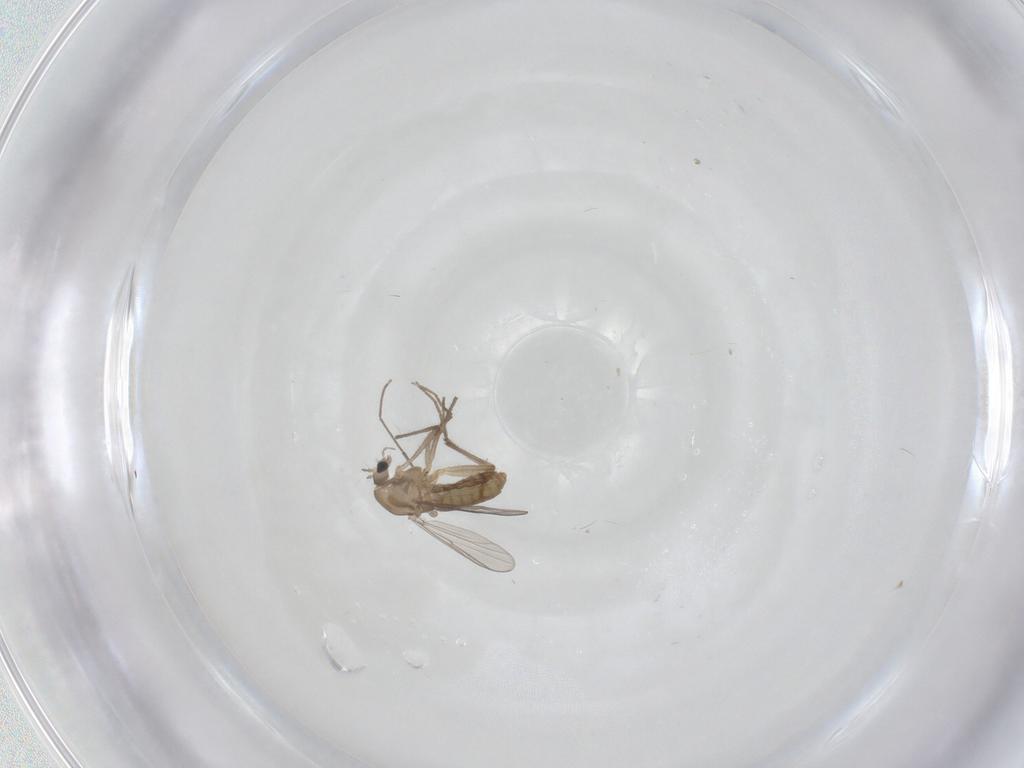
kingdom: Animalia
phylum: Arthropoda
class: Insecta
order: Diptera
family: Chironomidae
